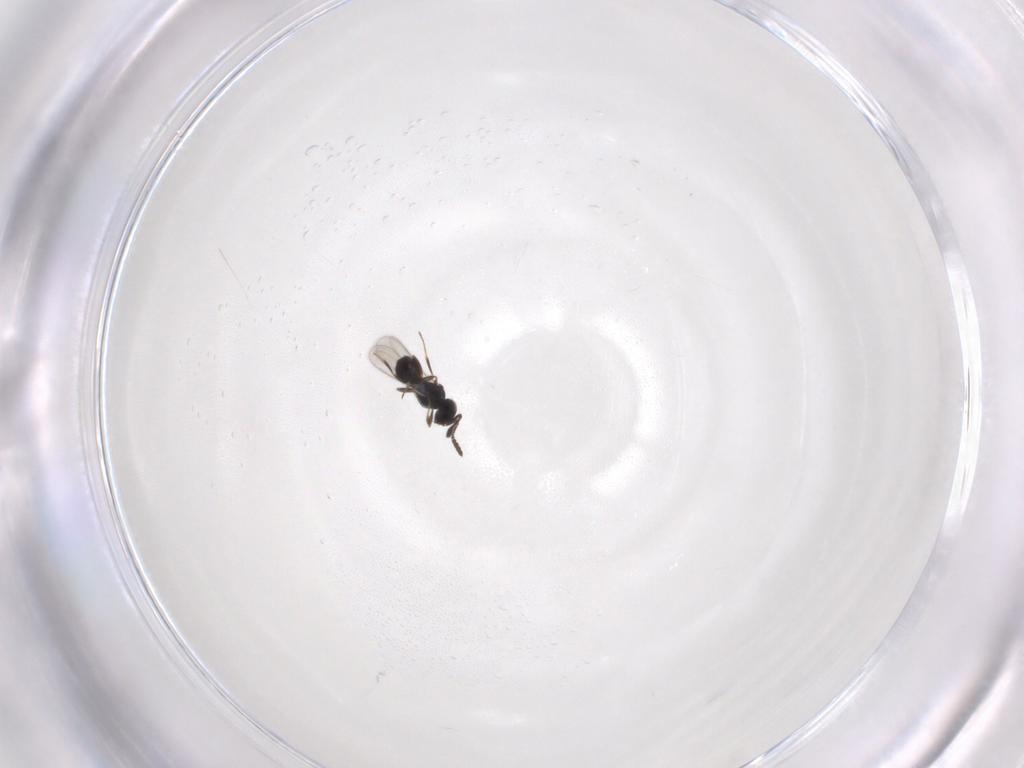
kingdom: Animalia
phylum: Arthropoda
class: Insecta
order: Hymenoptera
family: Scelionidae
